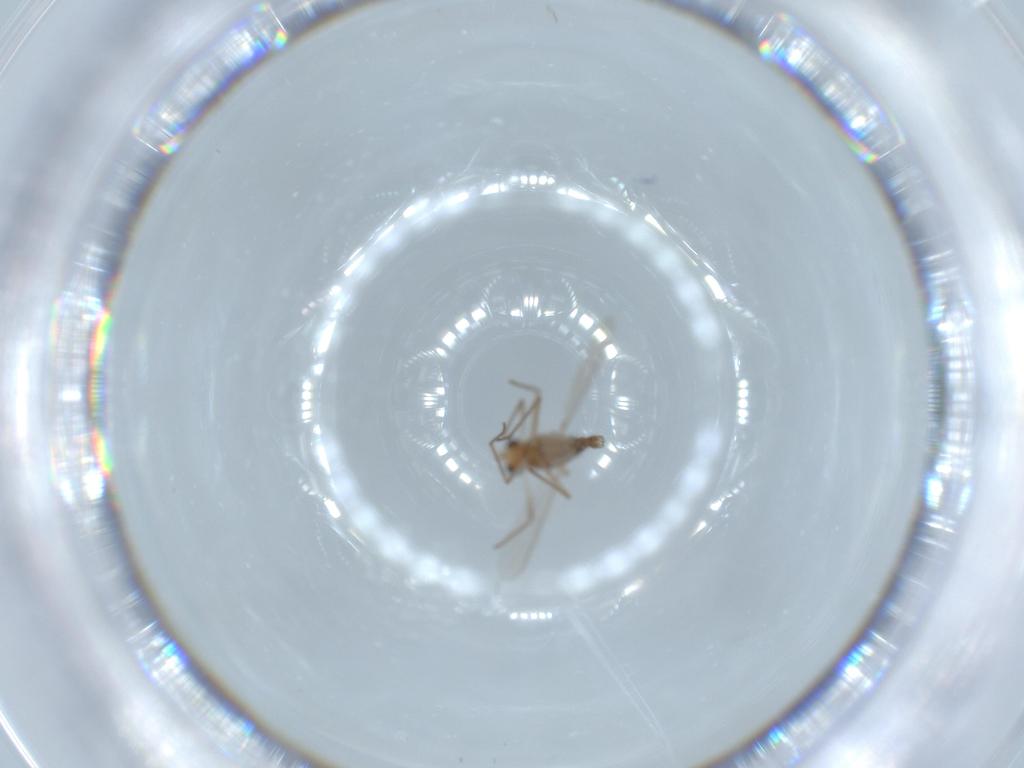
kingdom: Animalia
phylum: Arthropoda
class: Insecta
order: Diptera
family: Chironomidae
